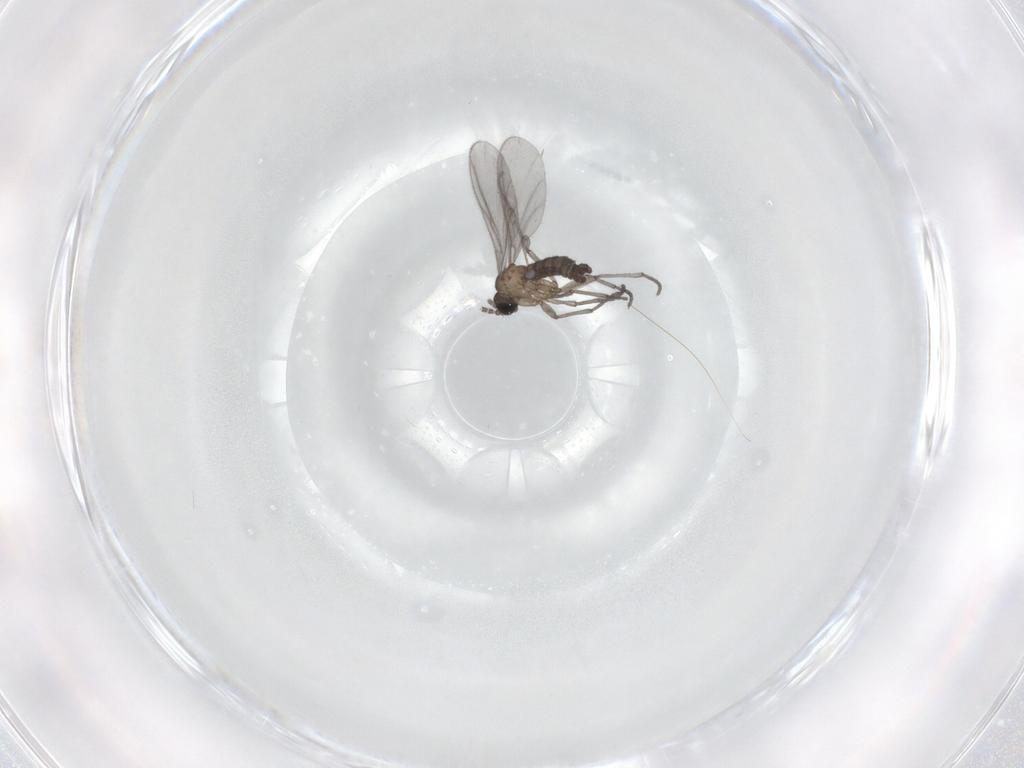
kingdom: Animalia
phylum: Arthropoda
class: Insecta
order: Diptera
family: Sciaridae
